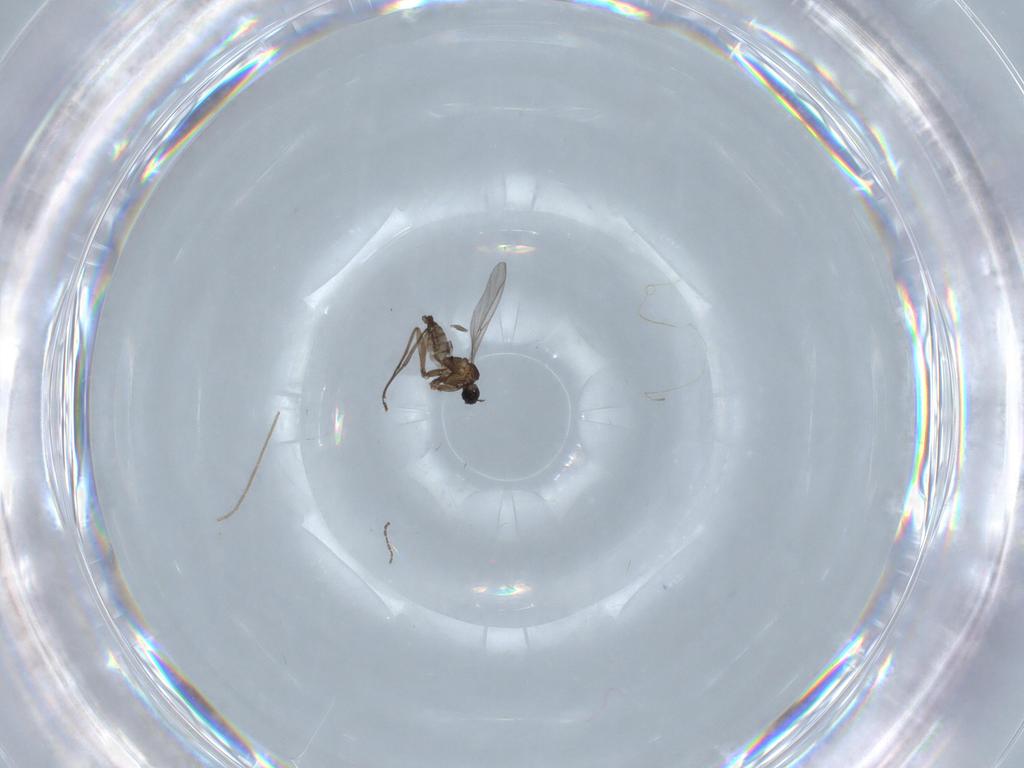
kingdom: Animalia
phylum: Arthropoda
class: Insecta
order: Diptera
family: Sciaridae
